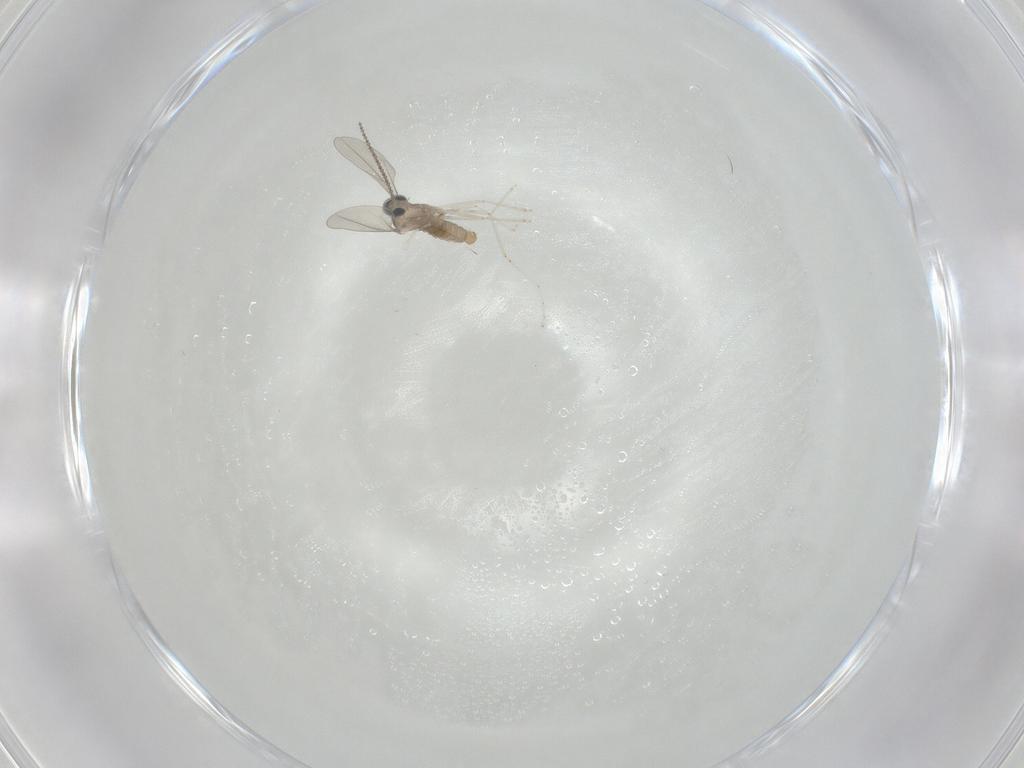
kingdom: Animalia
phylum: Arthropoda
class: Insecta
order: Diptera
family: Cecidomyiidae
